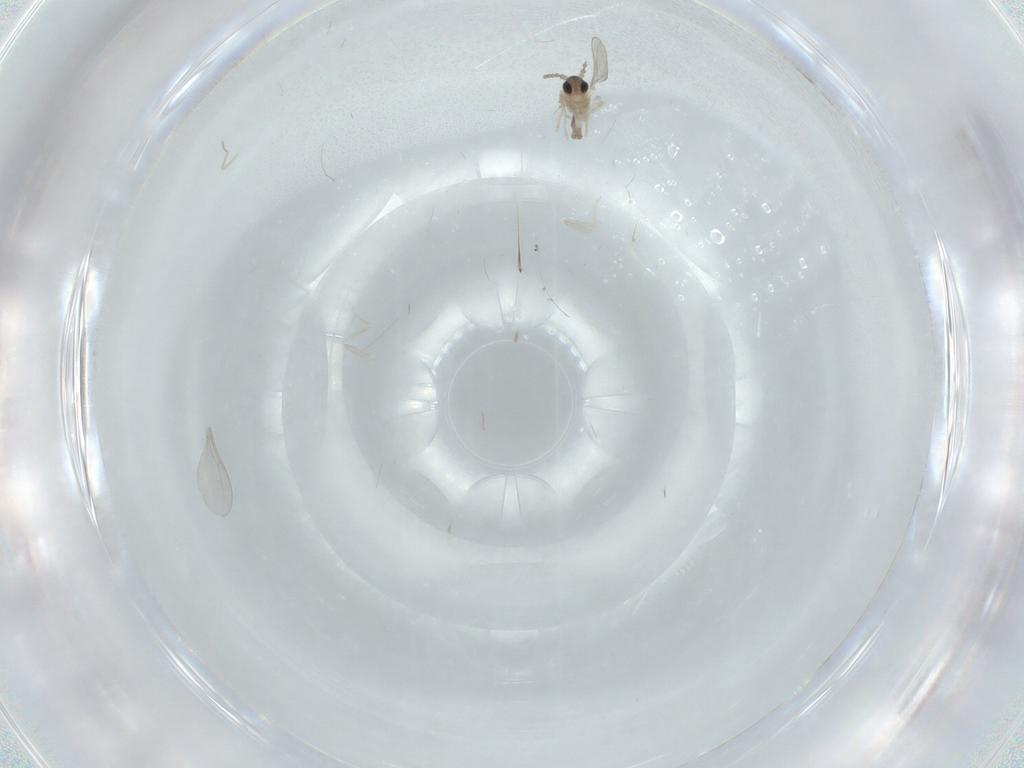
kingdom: Animalia
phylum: Arthropoda
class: Insecta
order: Diptera
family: Cecidomyiidae
